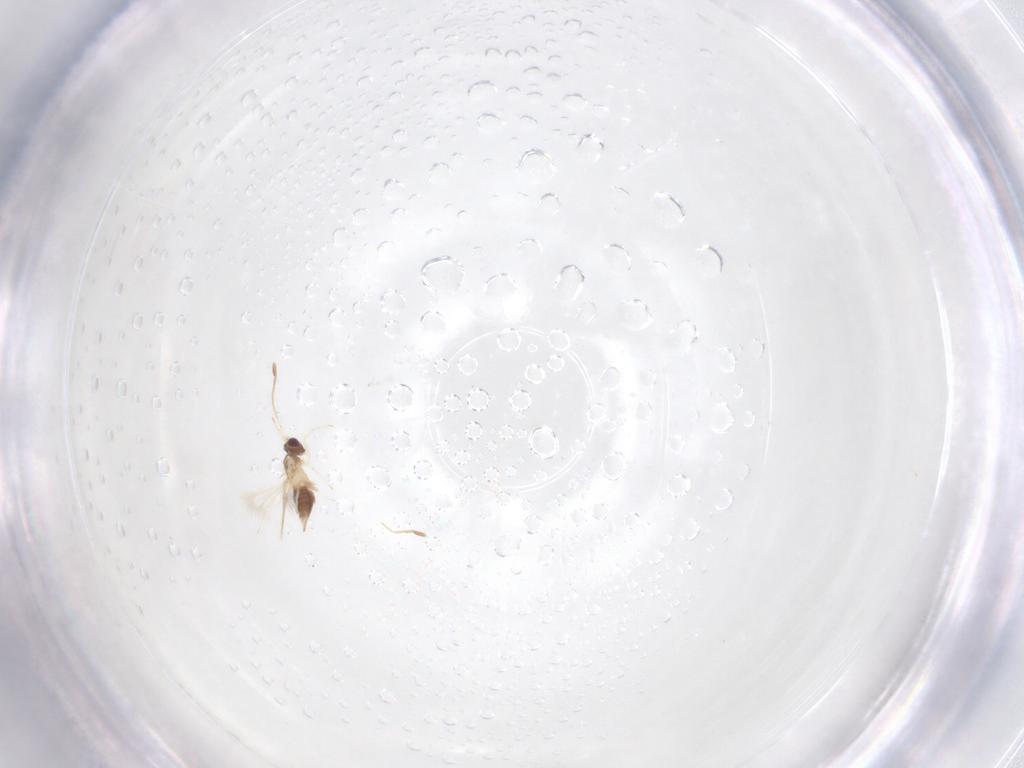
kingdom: Animalia
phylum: Arthropoda
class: Insecta
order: Hymenoptera
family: Mymaridae
